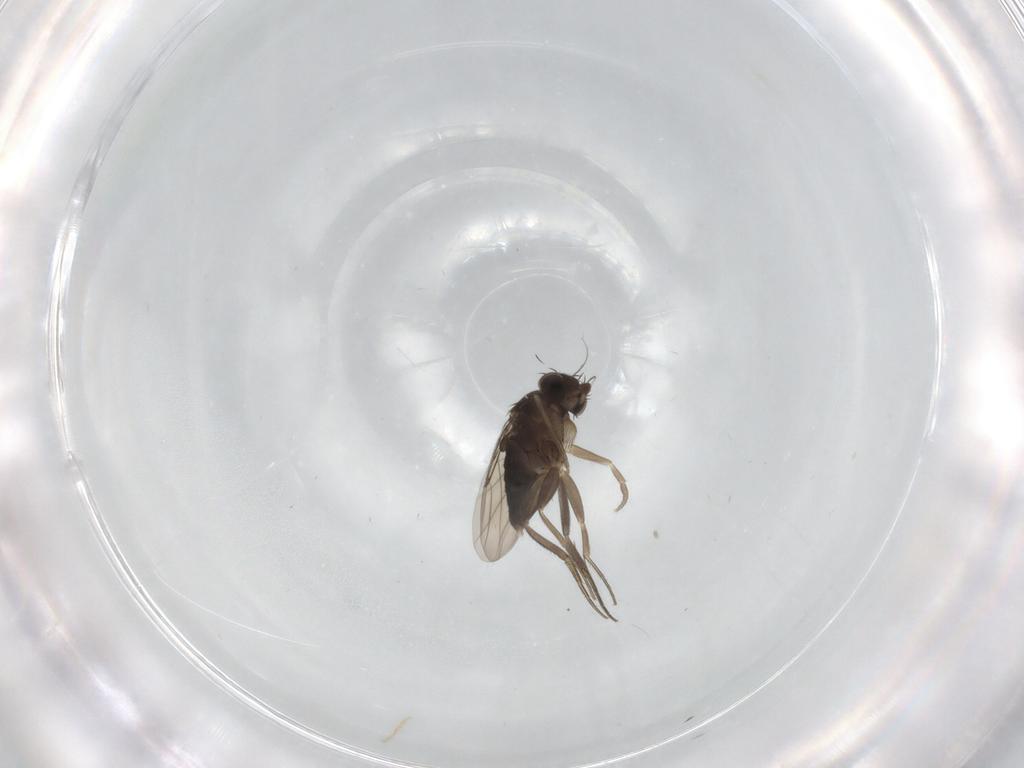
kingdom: Animalia
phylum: Arthropoda
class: Insecta
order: Diptera
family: Phoridae
